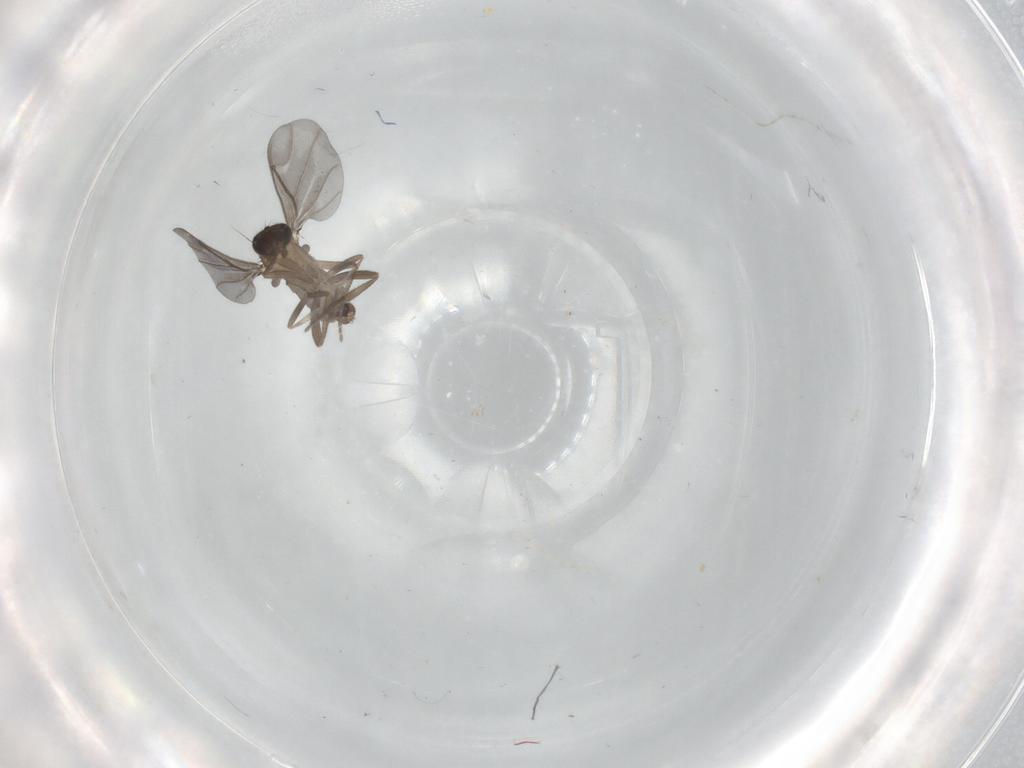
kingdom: Animalia
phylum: Arthropoda
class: Insecta
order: Diptera
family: Phoridae
